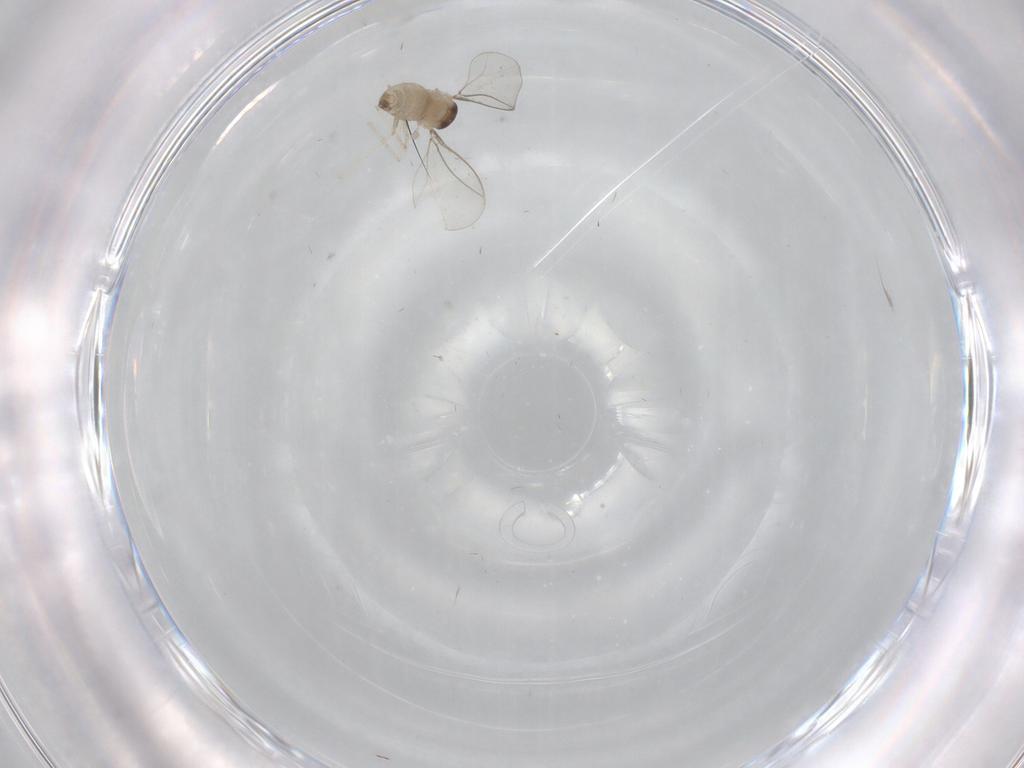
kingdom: Animalia
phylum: Arthropoda
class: Insecta
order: Diptera
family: Cecidomyiidae
